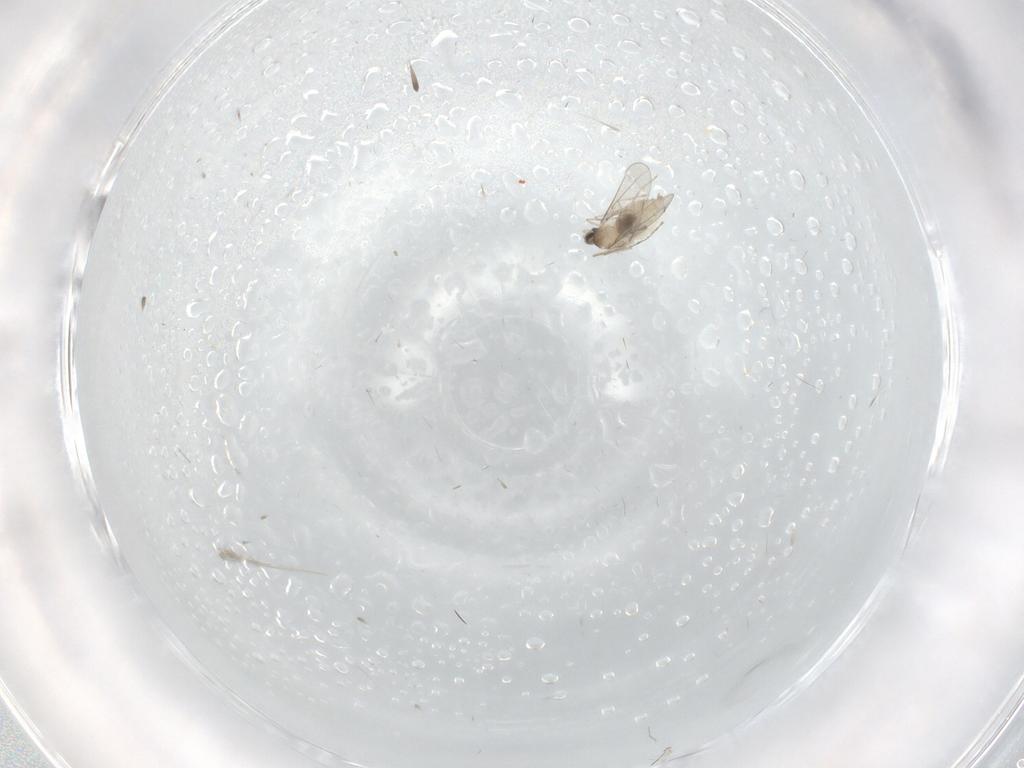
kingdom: Animalia
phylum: Arthropoda
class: Insecta
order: Diptera
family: Cecidomyiidae
